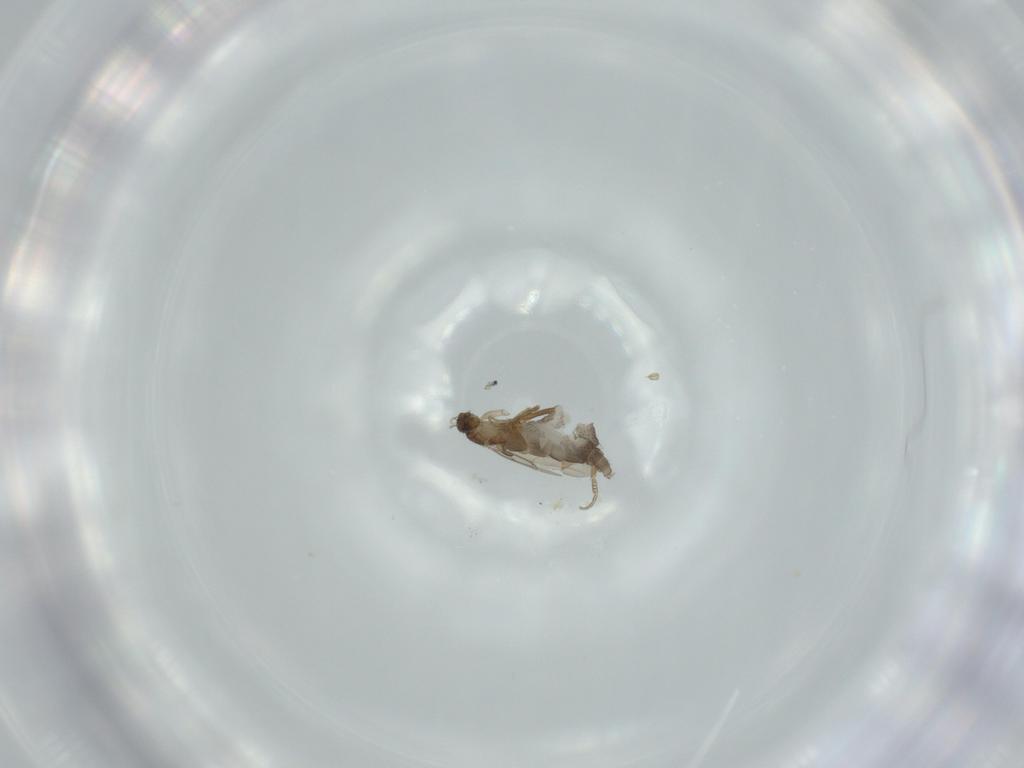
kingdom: Animalia
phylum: Arthropoda
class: Insecta
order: Diptera
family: Phoridae
